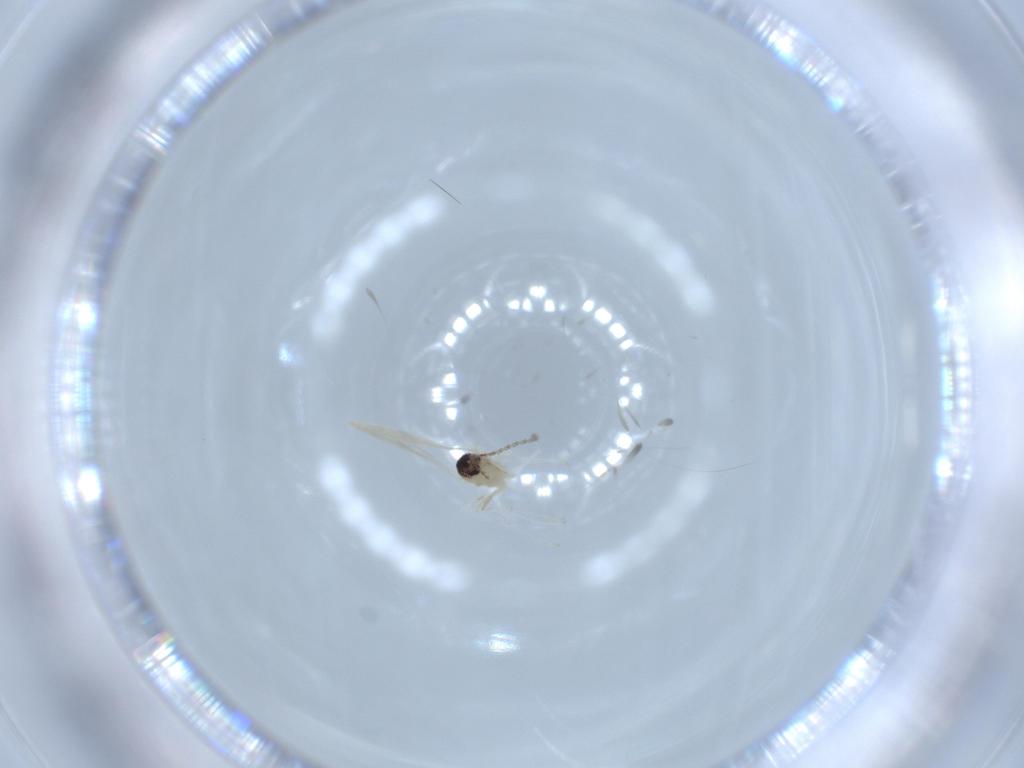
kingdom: Animalia
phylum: Arthropoda
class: Insecta
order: Diptera
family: Cecidomyiidae
